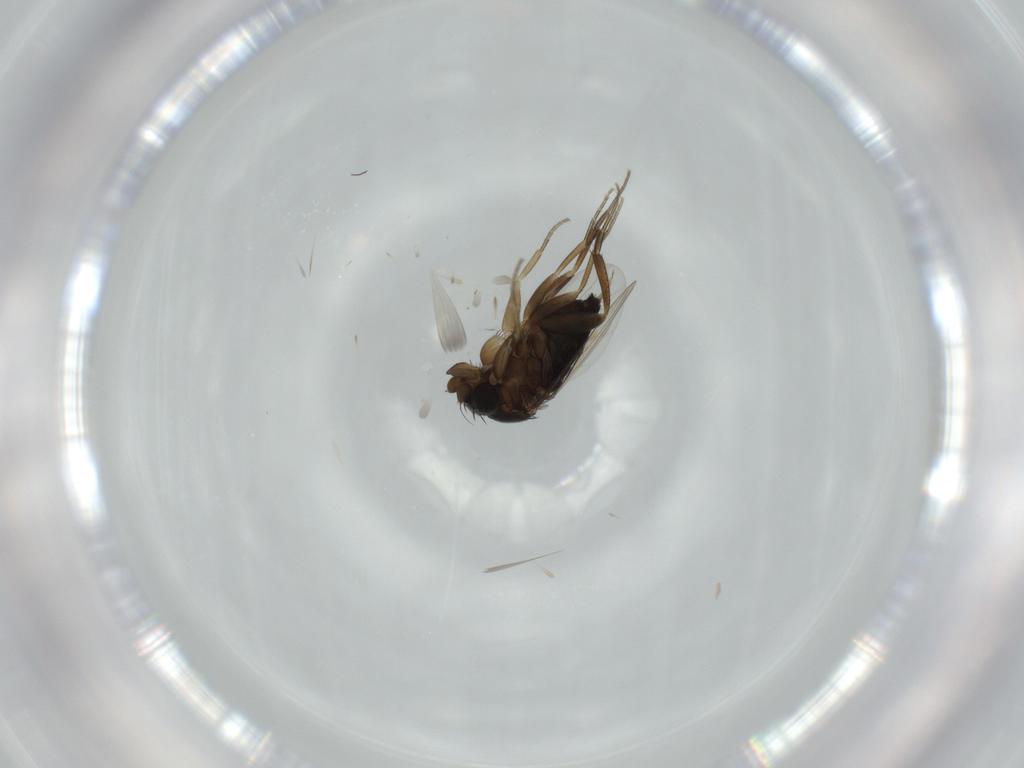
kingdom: Animalia
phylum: Arthropoda
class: Insecta
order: Diptera
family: Phoridae
